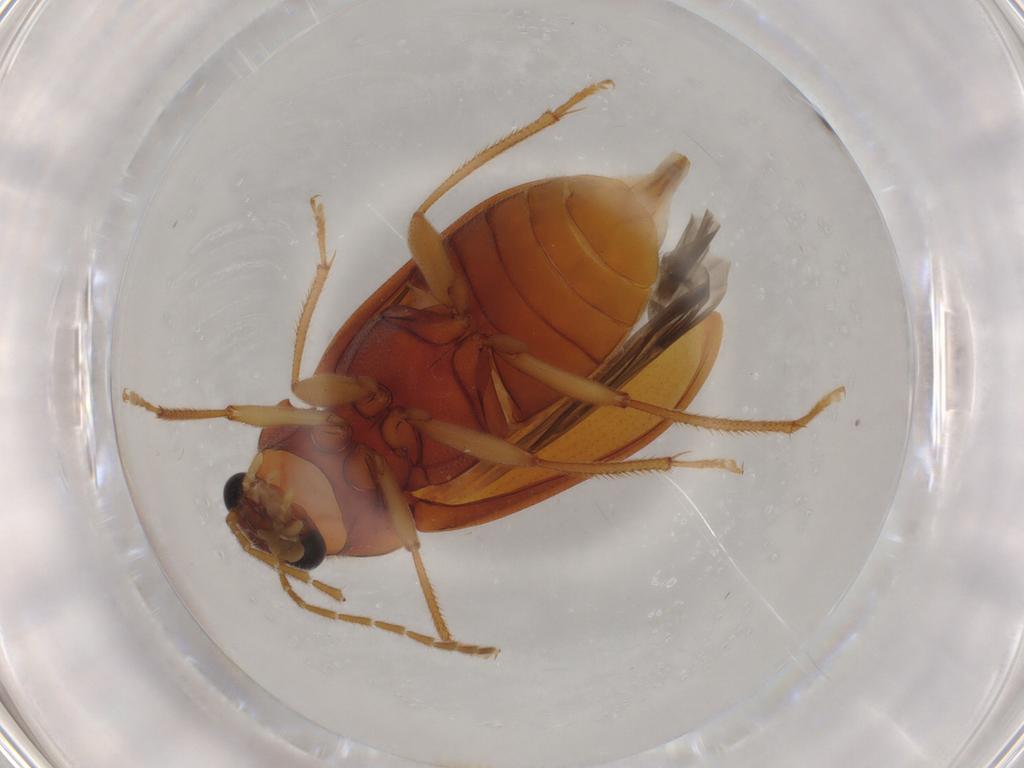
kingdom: Animalia
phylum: Arthropoda
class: Insecta
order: Coleoptera
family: Ptilodactylidae
